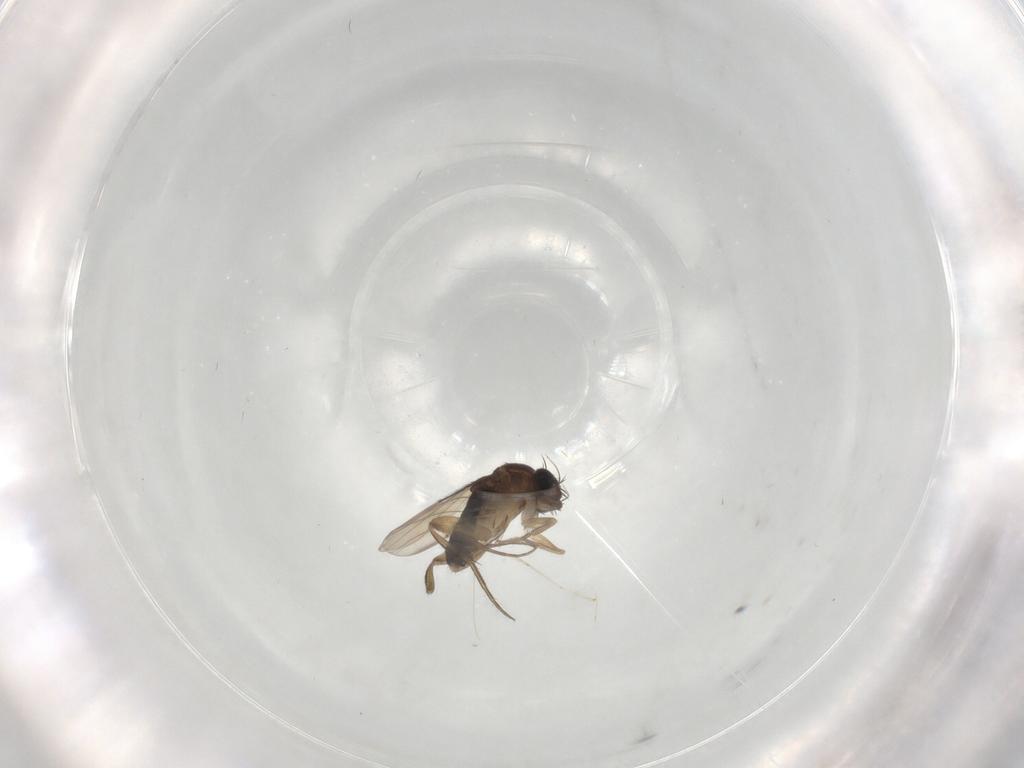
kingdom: Animalia
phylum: Arthropoda
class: Insecta
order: Diptera
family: Phoridae
